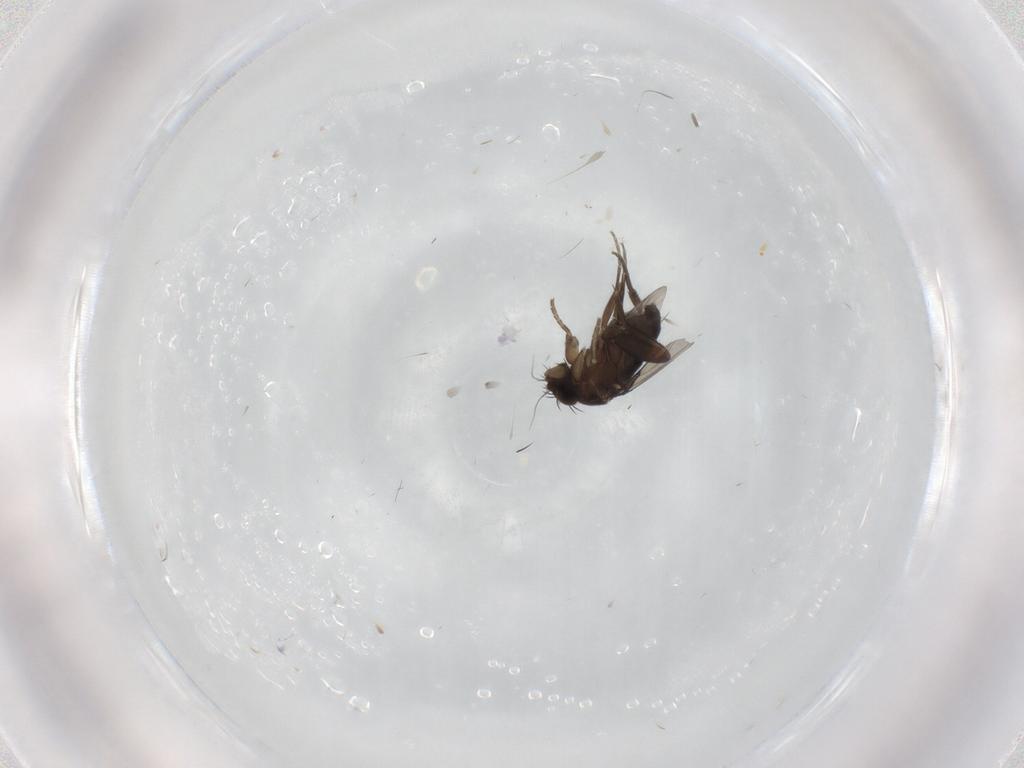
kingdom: Animalia
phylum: Arthropoda
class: Insecta
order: Diptera
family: Phoridae
